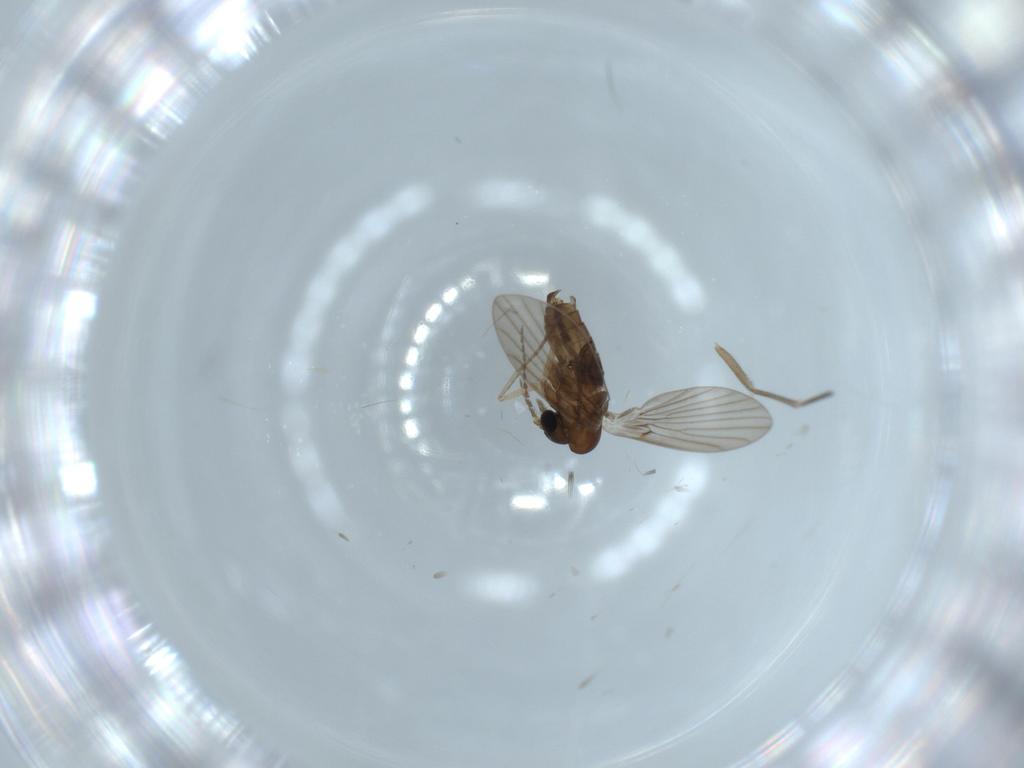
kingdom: Animalia
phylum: Arthropoda
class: Insecta
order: Diptera
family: Psychodidae
